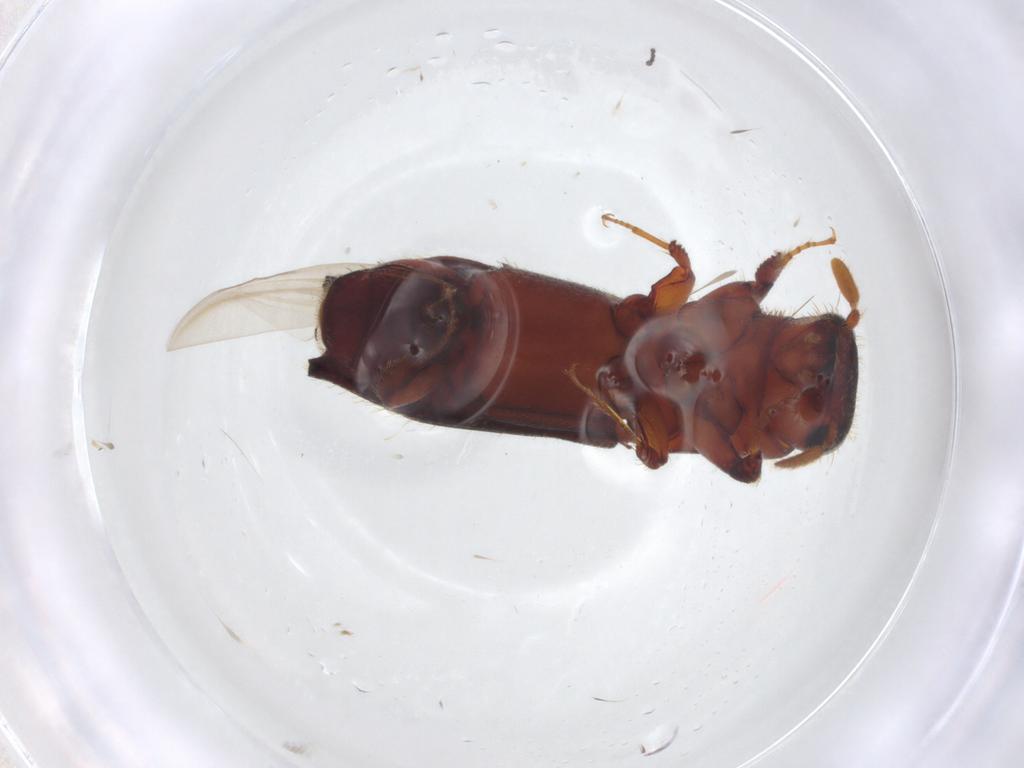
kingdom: Animalia
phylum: Arthropoda
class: Insecta
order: Coleoptera
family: Curculionidae
